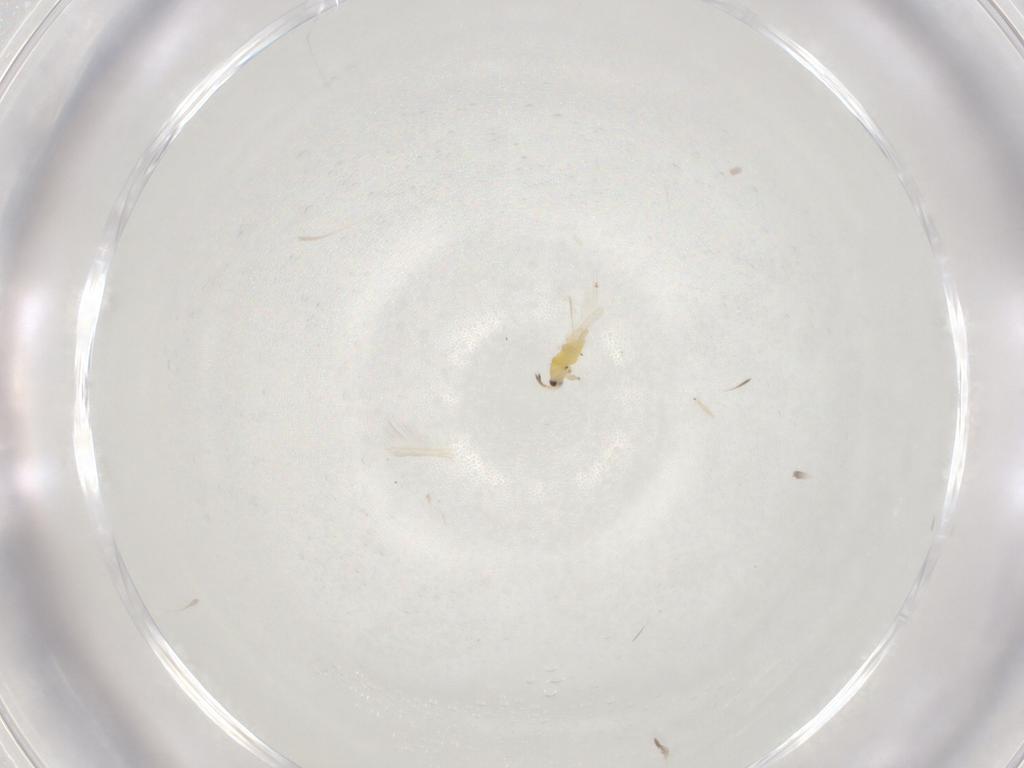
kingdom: Animalia
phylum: Arthropoda
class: Insecta
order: Thysanoptera
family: Thripidae
